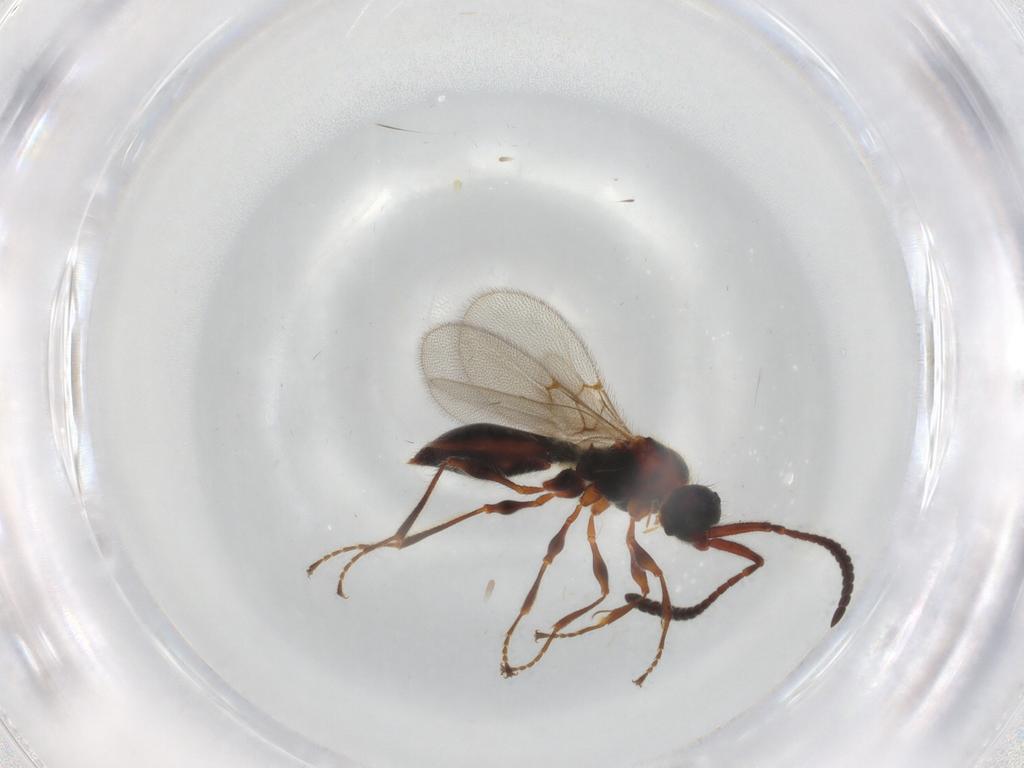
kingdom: Animalia
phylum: Arthropoda
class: Insecta
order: Hymenoptera
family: Diapriidae
